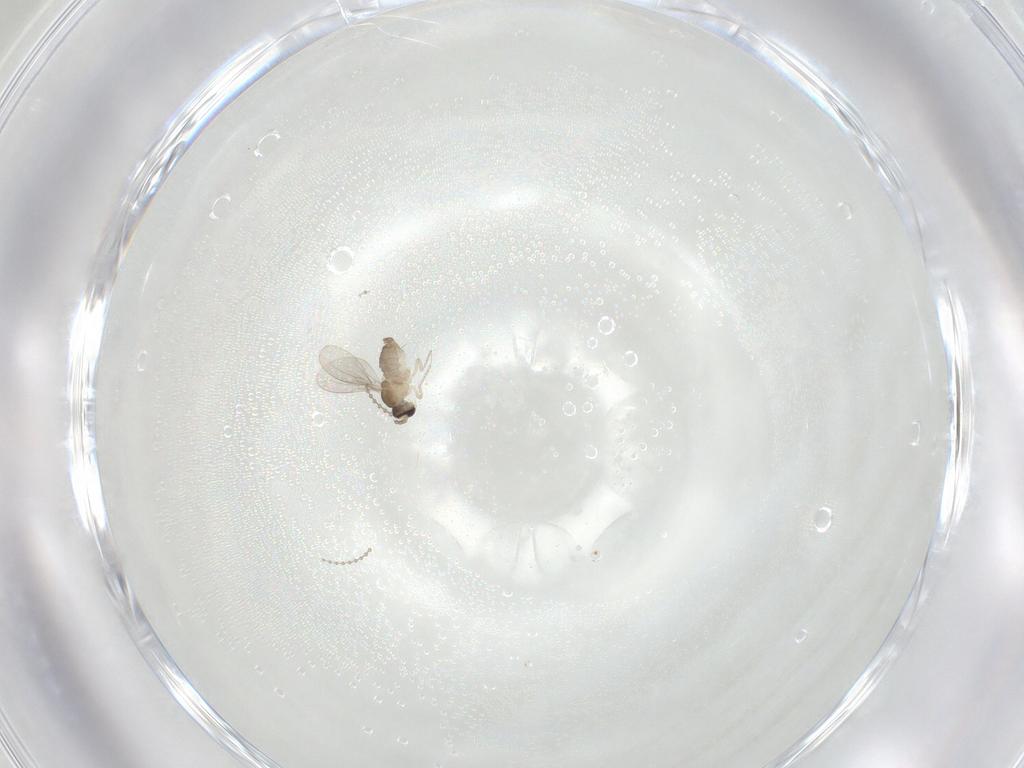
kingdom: Animalia
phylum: Arthropoda
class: Insecta
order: Diptera
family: Cecidomyiidae
